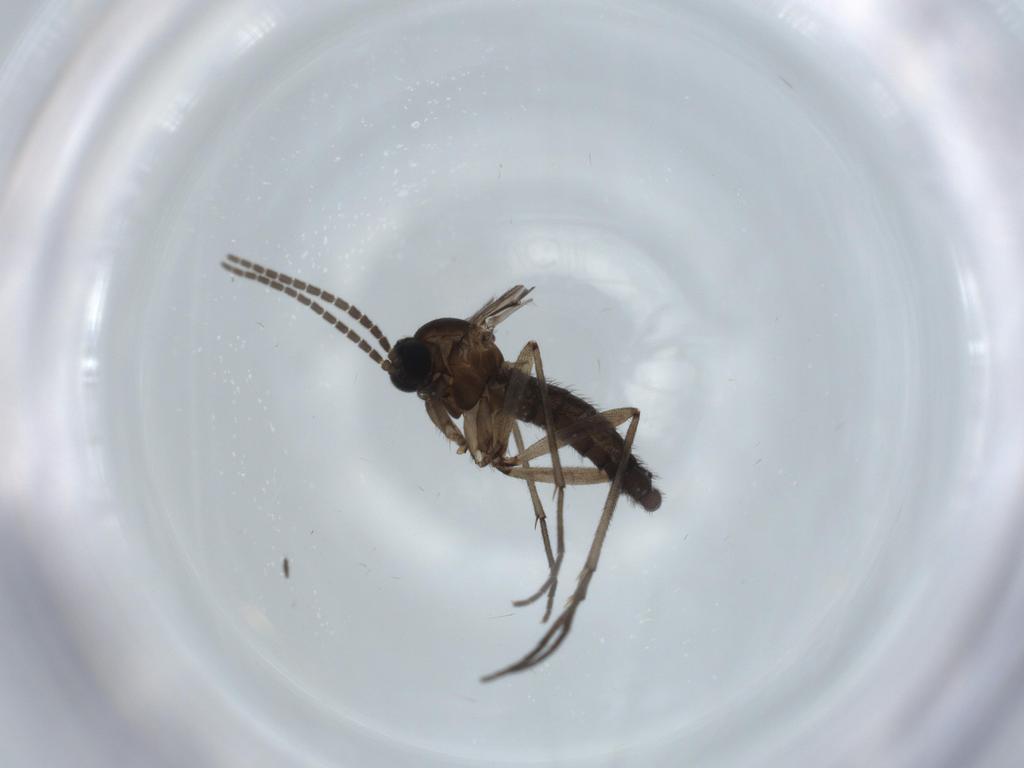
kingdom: Animalia
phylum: Arthropoda
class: Insecta
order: Diptera
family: Sciaridae
